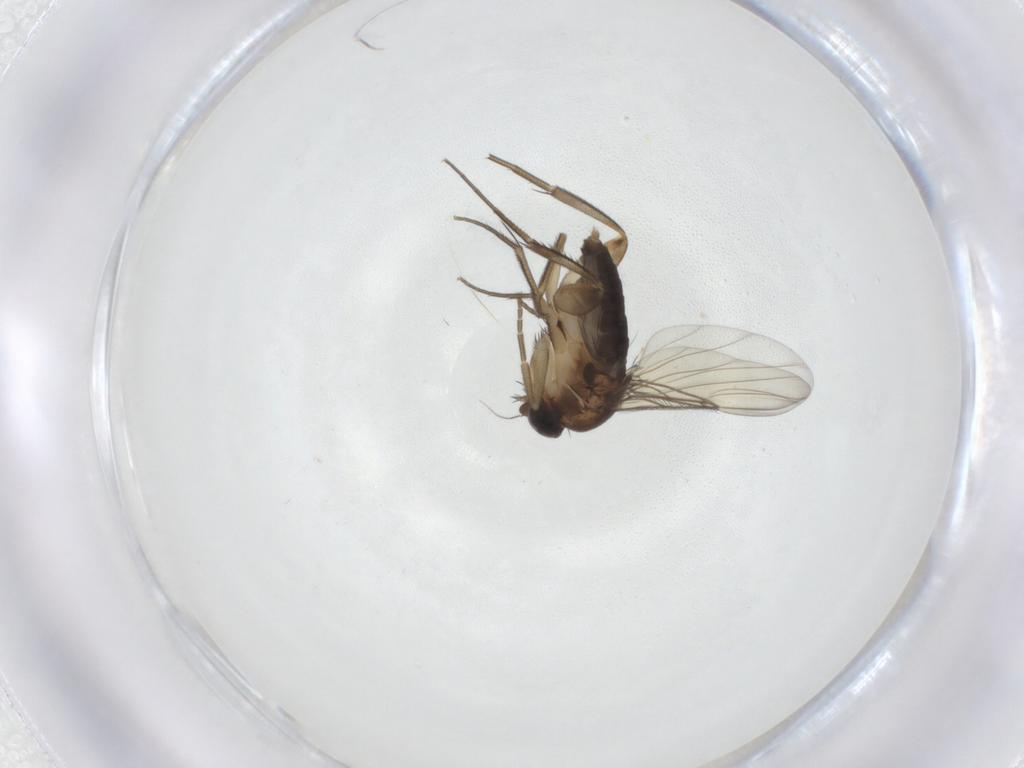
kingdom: Animalia
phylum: Arthropoda
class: Insecta
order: Diptera
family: Phoridae
